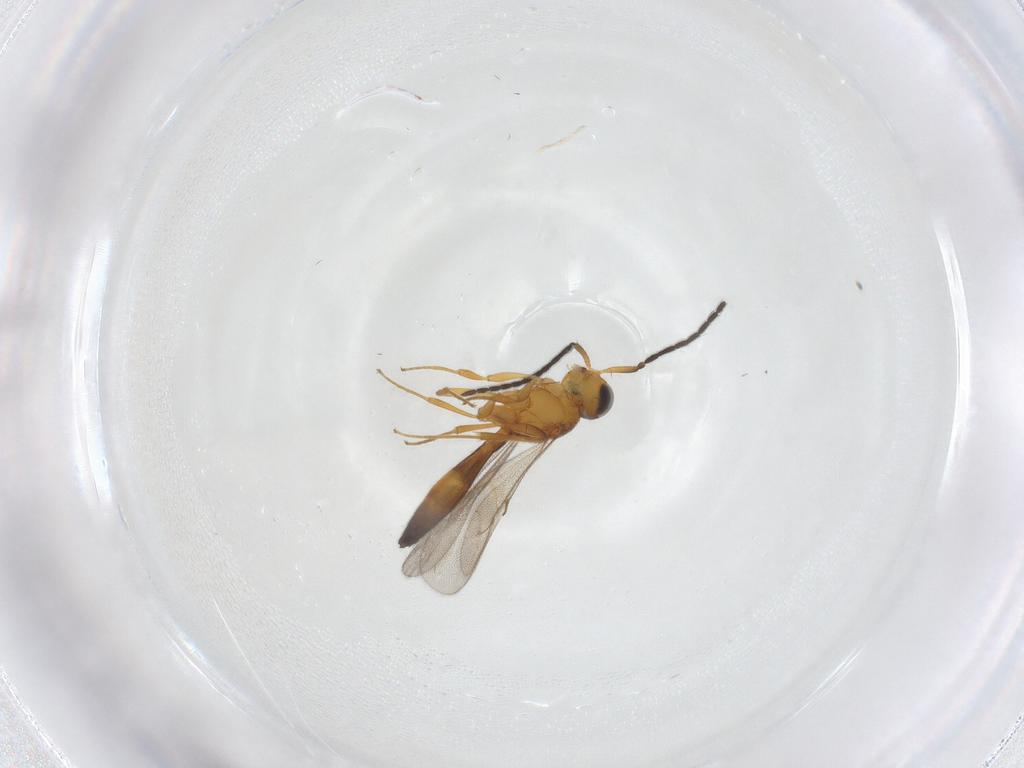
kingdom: Animalia
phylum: Arthropoda
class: Insecta
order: Hymenoptera
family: Scelionidae
